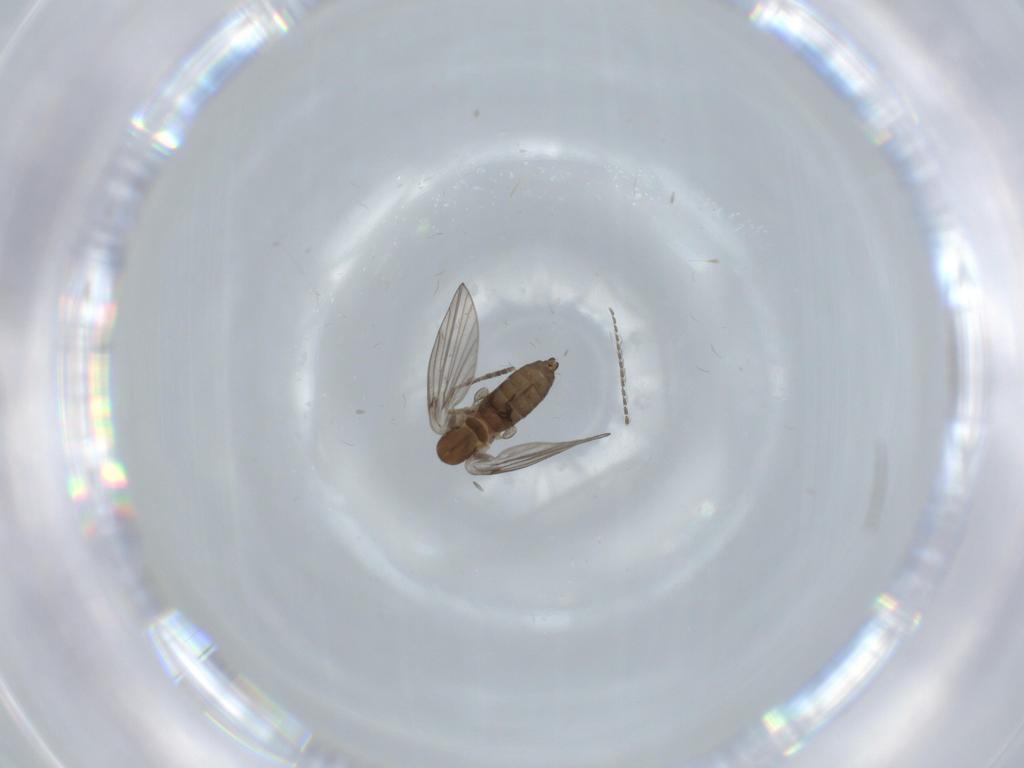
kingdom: Animalia
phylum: Arthropoda
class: Insecta
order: Diptera
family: Psychodidae
